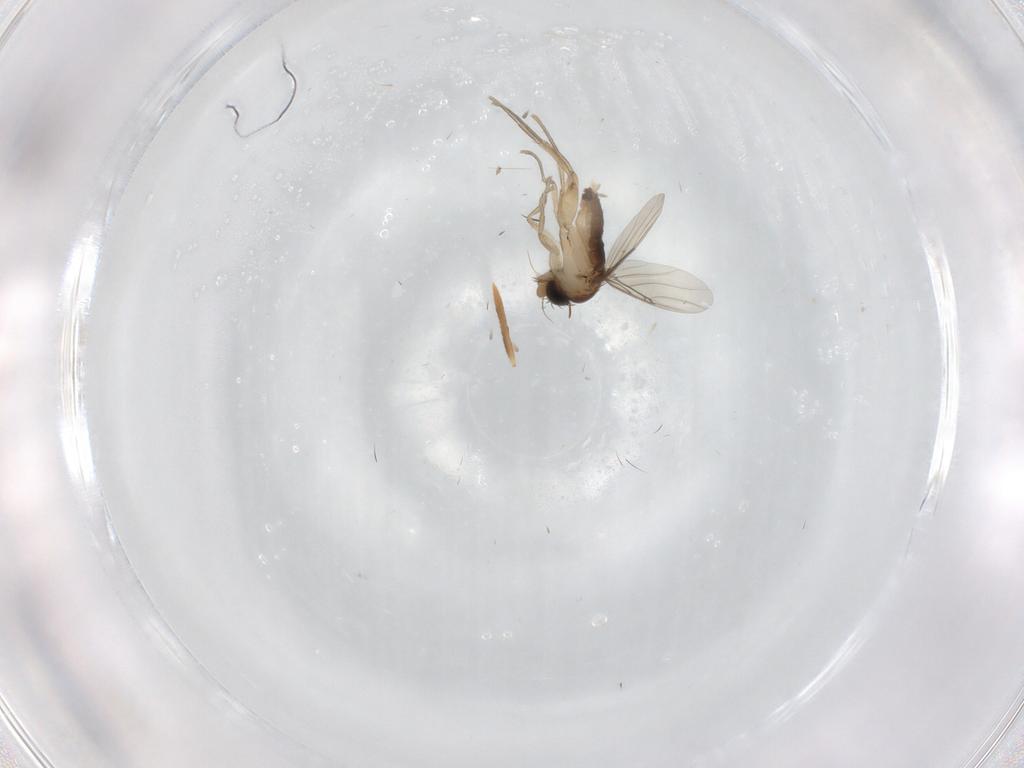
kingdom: Animalia
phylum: Arthropoda
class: Insecta
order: Diptera
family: Phoridae
